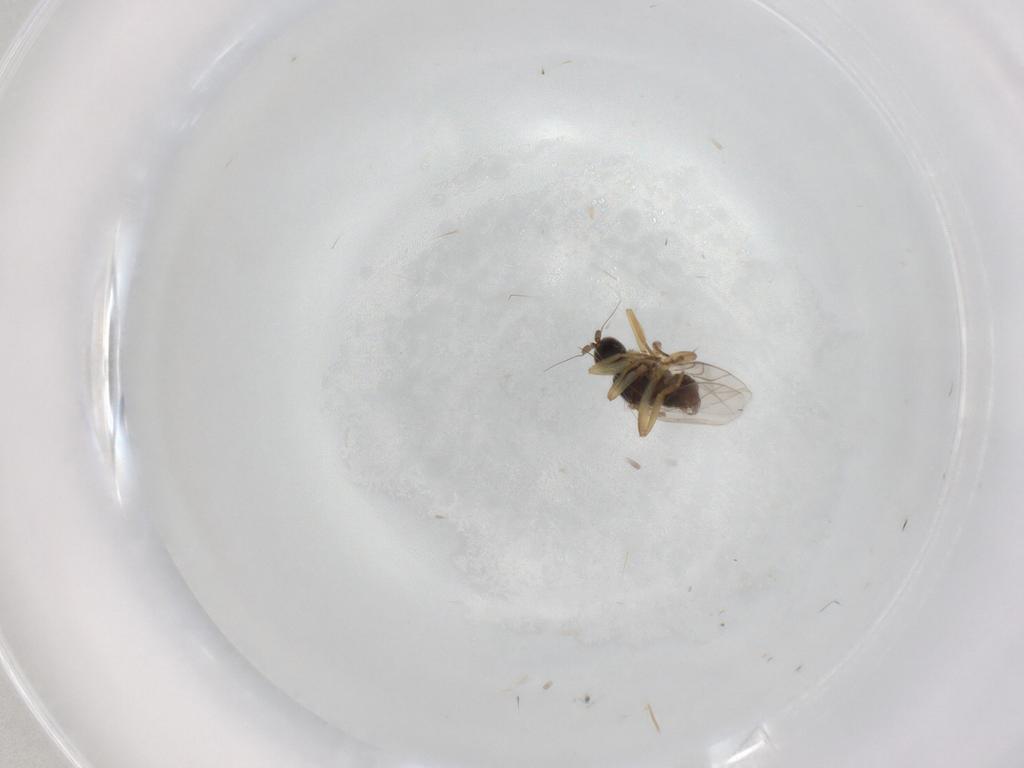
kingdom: Animalia
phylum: Arthropoda
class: Insecta
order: Diptera
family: Hybotidae
